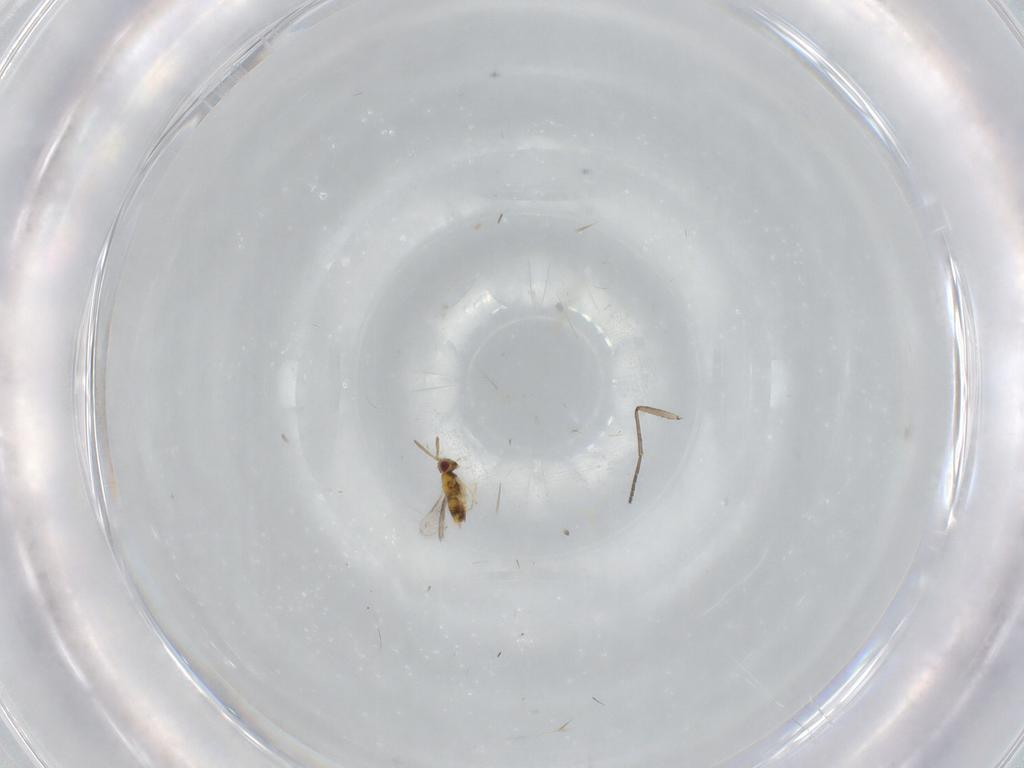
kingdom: Animalia
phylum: Arthropoda
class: Insecta
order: Hymenoptera
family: Aphelinidae
